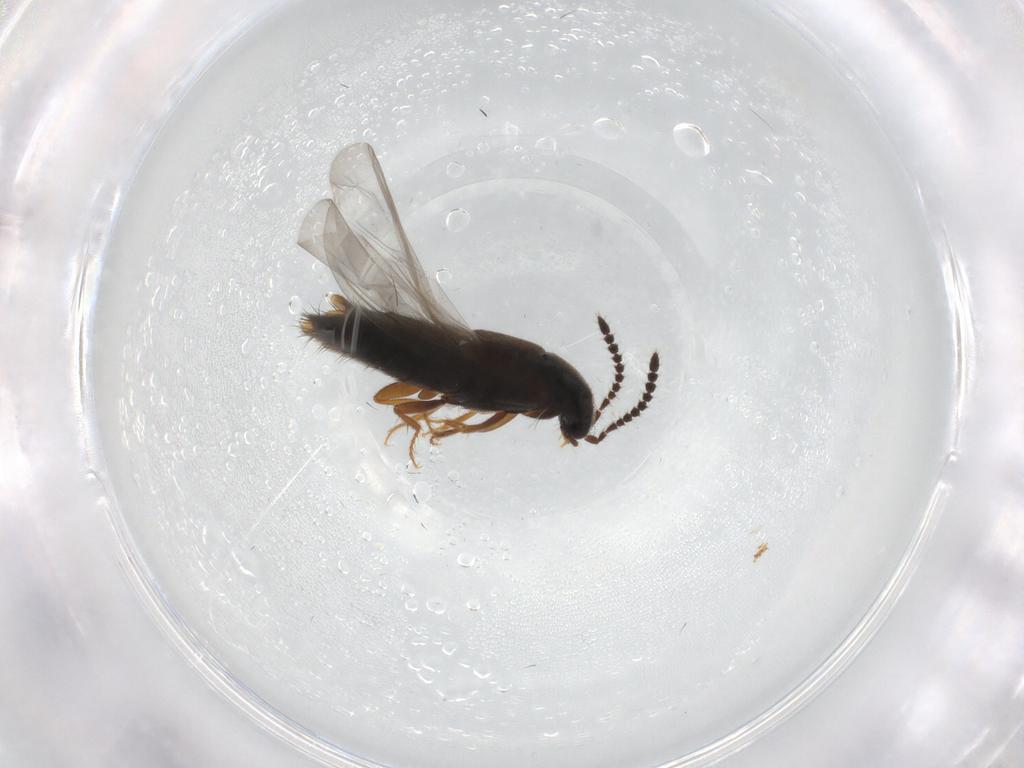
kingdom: Animalia
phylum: Arthropoda
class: Insecta
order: Coleoptera
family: Staphylinidae
